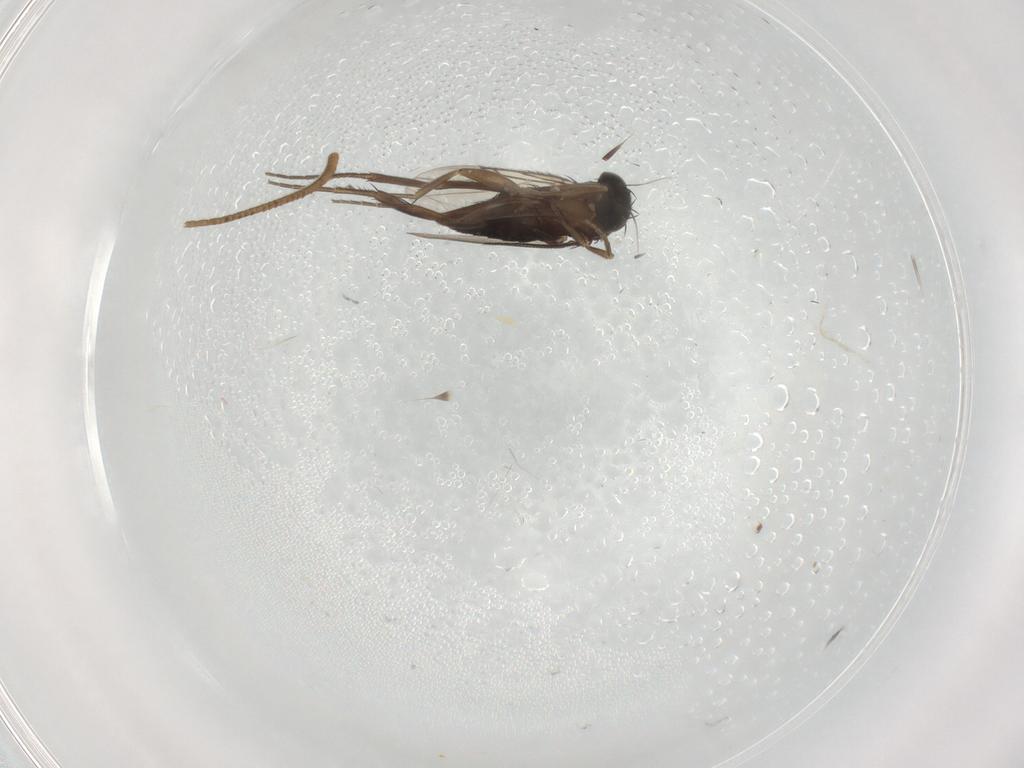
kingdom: Animalia
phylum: Arthropoda
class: Insecta
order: Diptera
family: Phoridae
